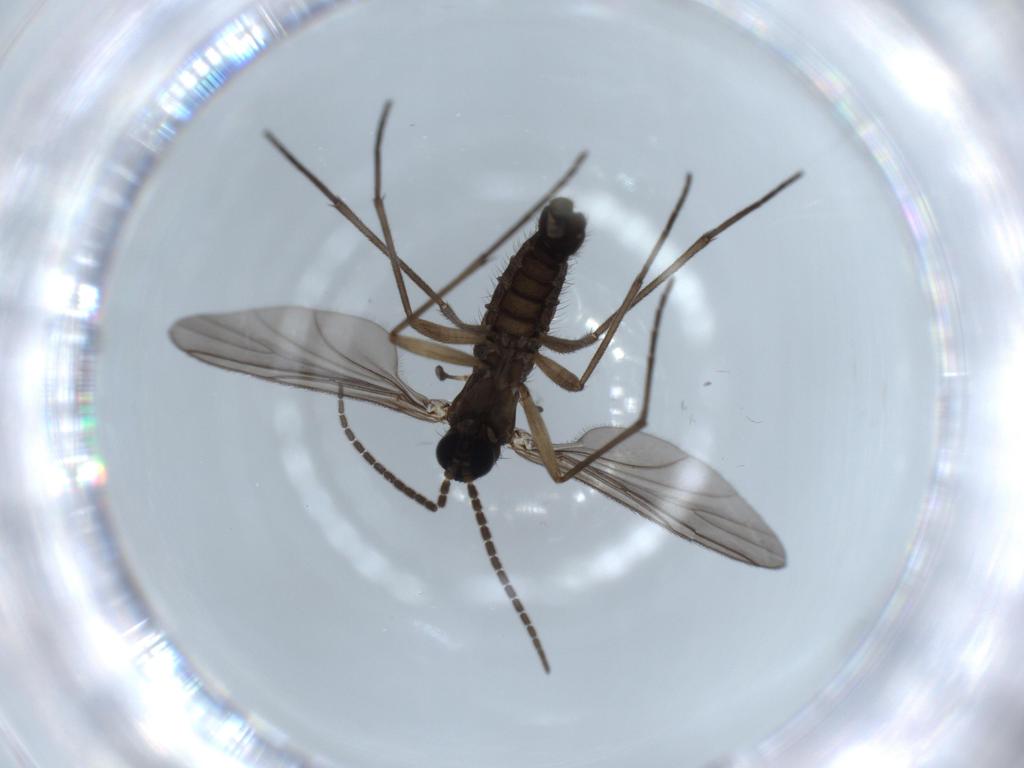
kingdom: Animalia
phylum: Arthropoda
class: Insecta
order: Diptera
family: Sciaridae
